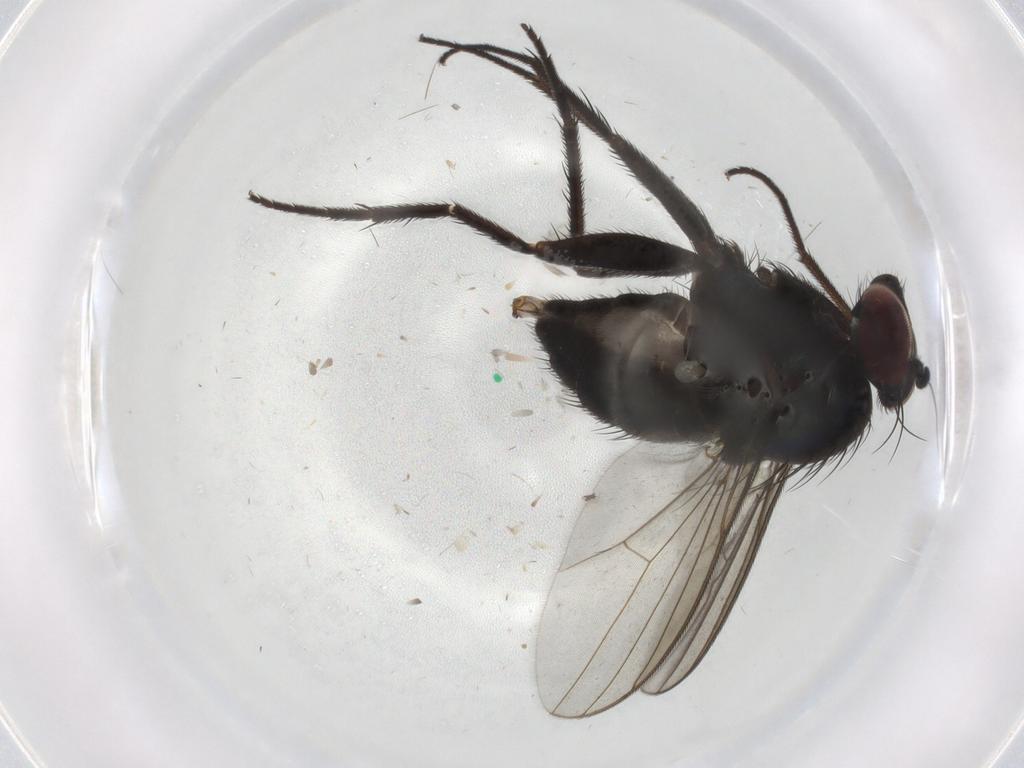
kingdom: Animalia
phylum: Arthropoda
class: Insecta
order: Diptera
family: Dolichopodidae
